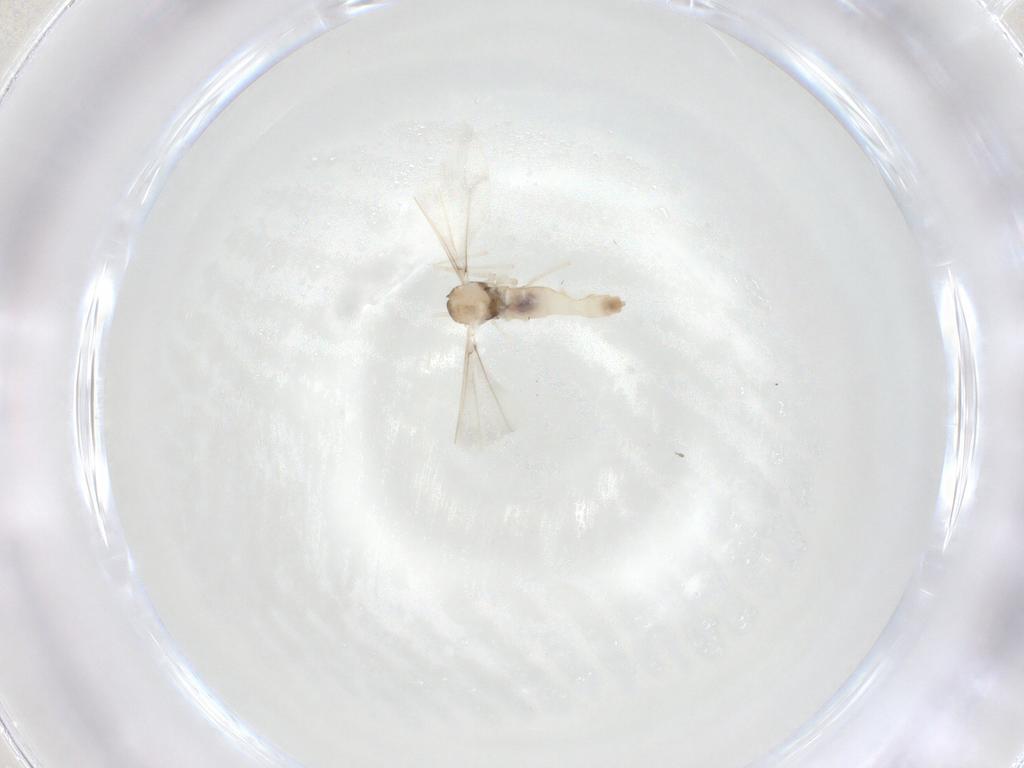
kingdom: Animalia
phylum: Arthropoda
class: Insecta
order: Diptera
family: Cecidomyiidae
